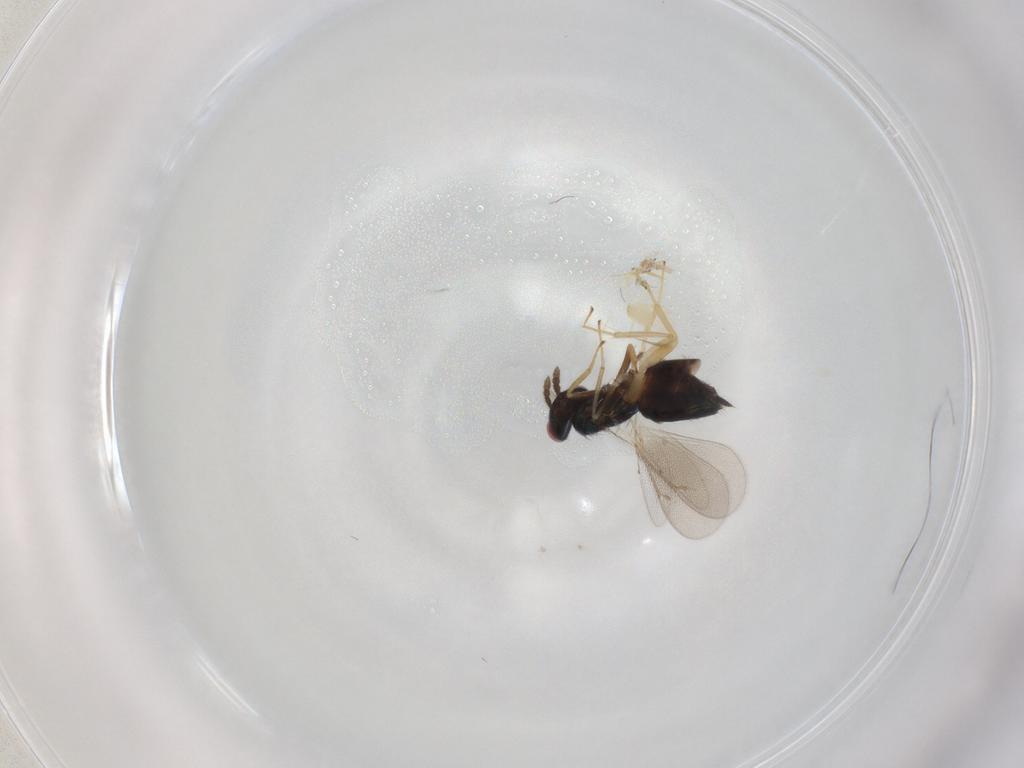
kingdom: Animalia
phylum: Arthropoda
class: Insecta
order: Hymenoptera
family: Eulophidae
